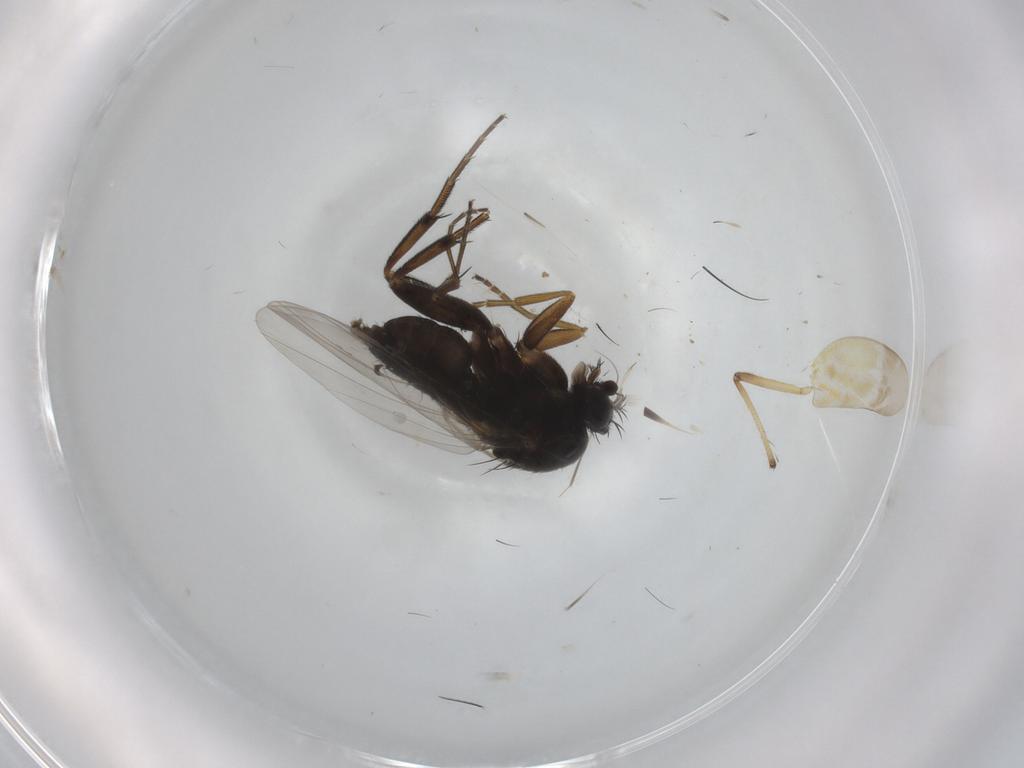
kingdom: Animalia
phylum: Arthropoda
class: Insecta
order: Diptera
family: Phoridae
